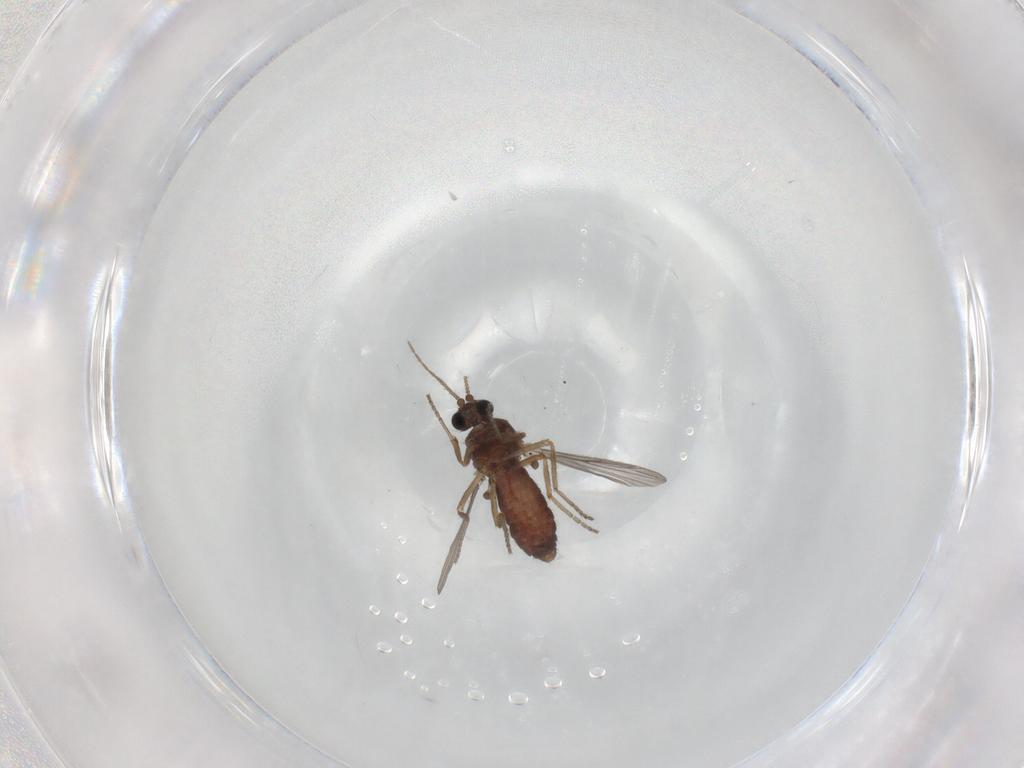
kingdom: Animalia
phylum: Arthropoda
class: Insecta
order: Diptera
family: Ceratopogonidae
